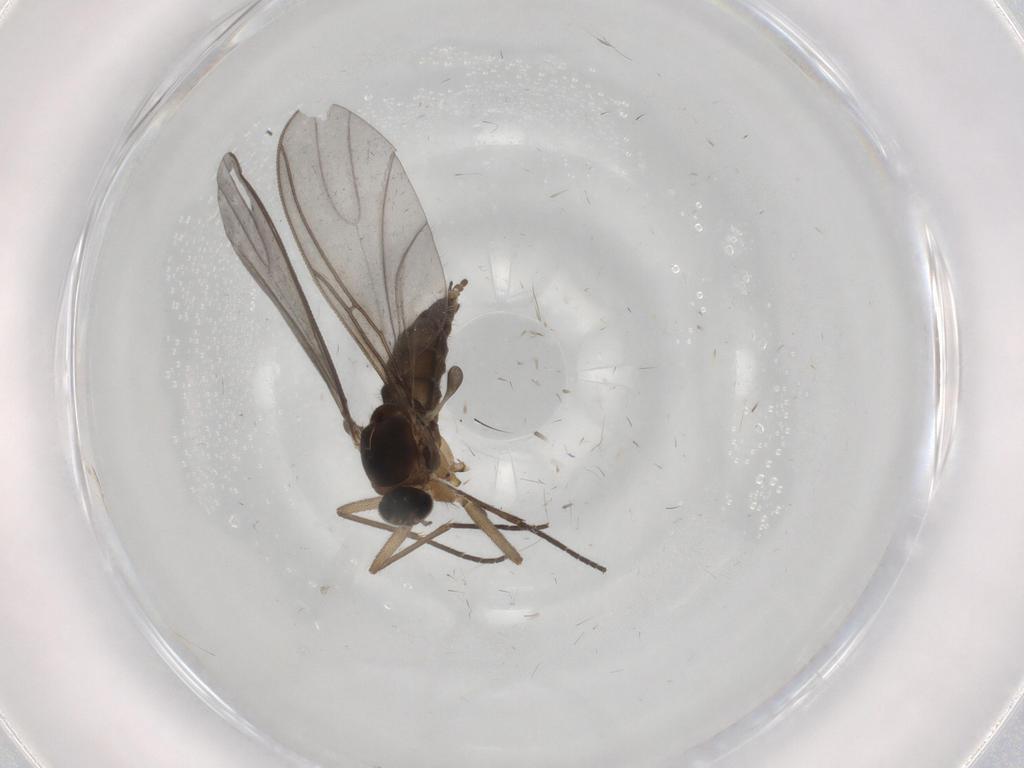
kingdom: Animalia
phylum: Arthropoda
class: Insecta
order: Diptera
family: Sciaridae
